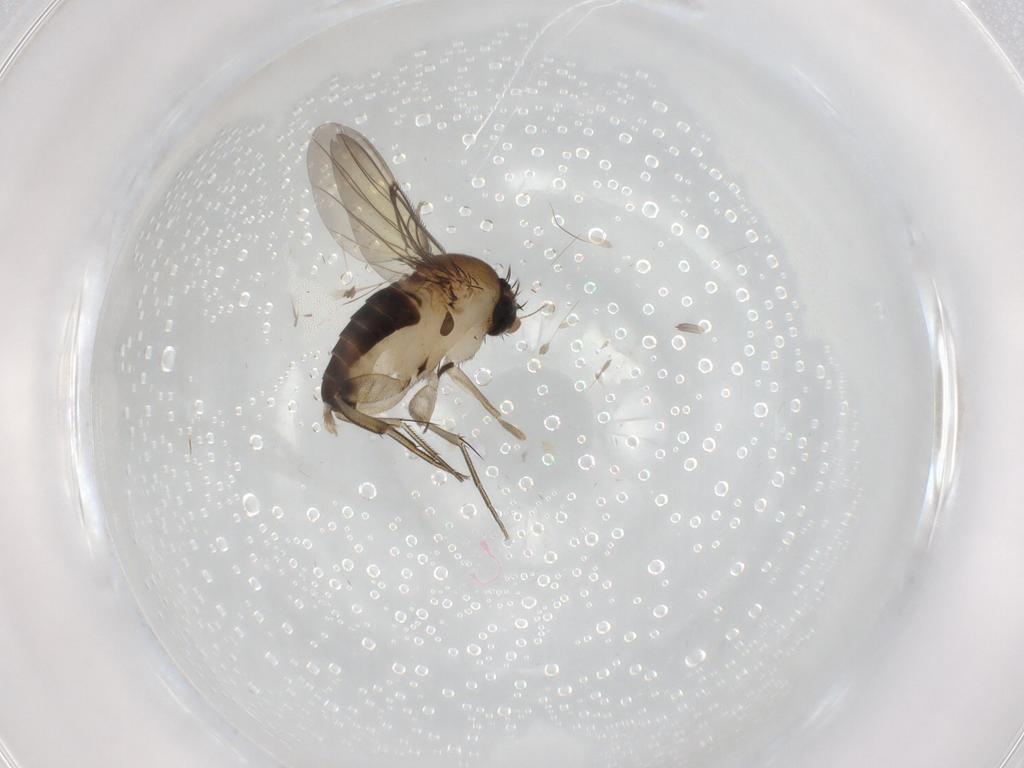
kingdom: Animalia
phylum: Arthropoda
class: Insecta
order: Diptera
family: Phoridae
